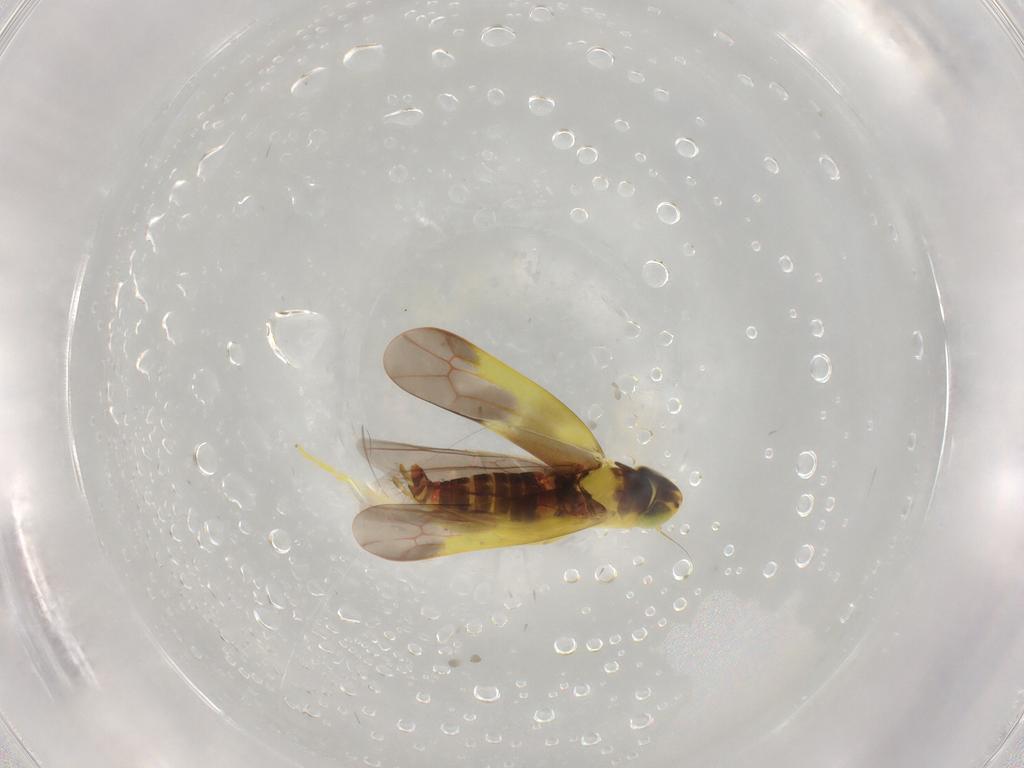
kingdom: Animalia
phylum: Arthropoda
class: Insecta
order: Hemiptera
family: Cicadellidae
